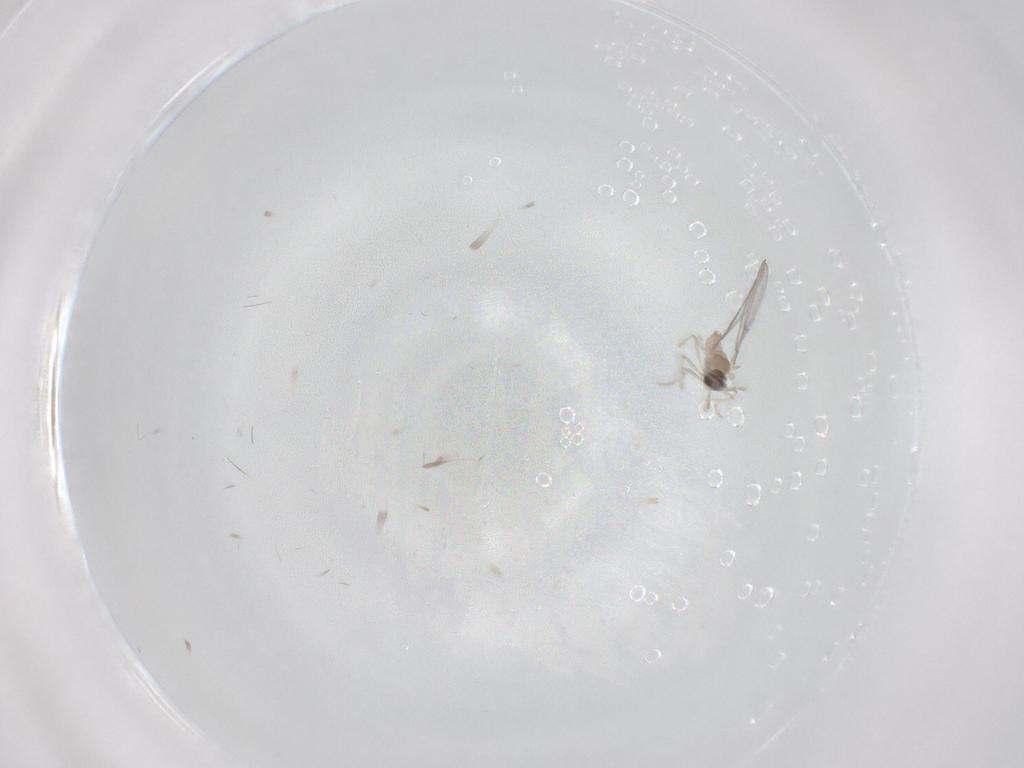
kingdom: Animalia
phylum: Arthropoda
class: Insecta
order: Diptera
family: Cecidomyiidae
